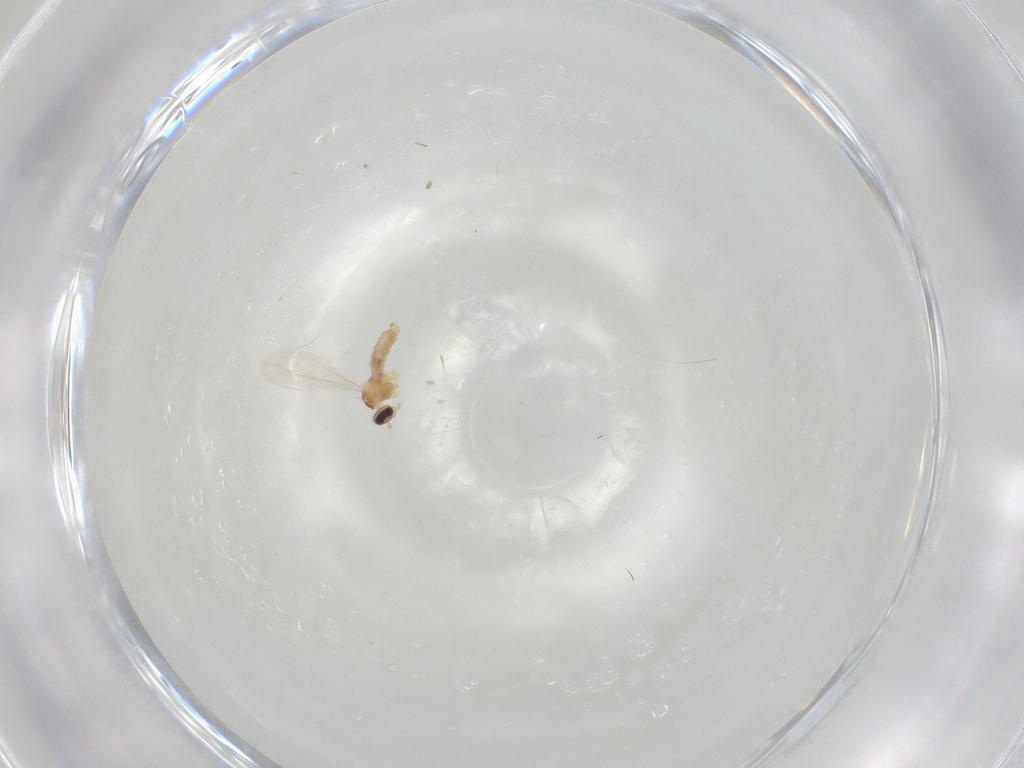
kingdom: Animalia
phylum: Arthropoda
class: Insecta
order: Diptera
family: Cecidomyiidae
